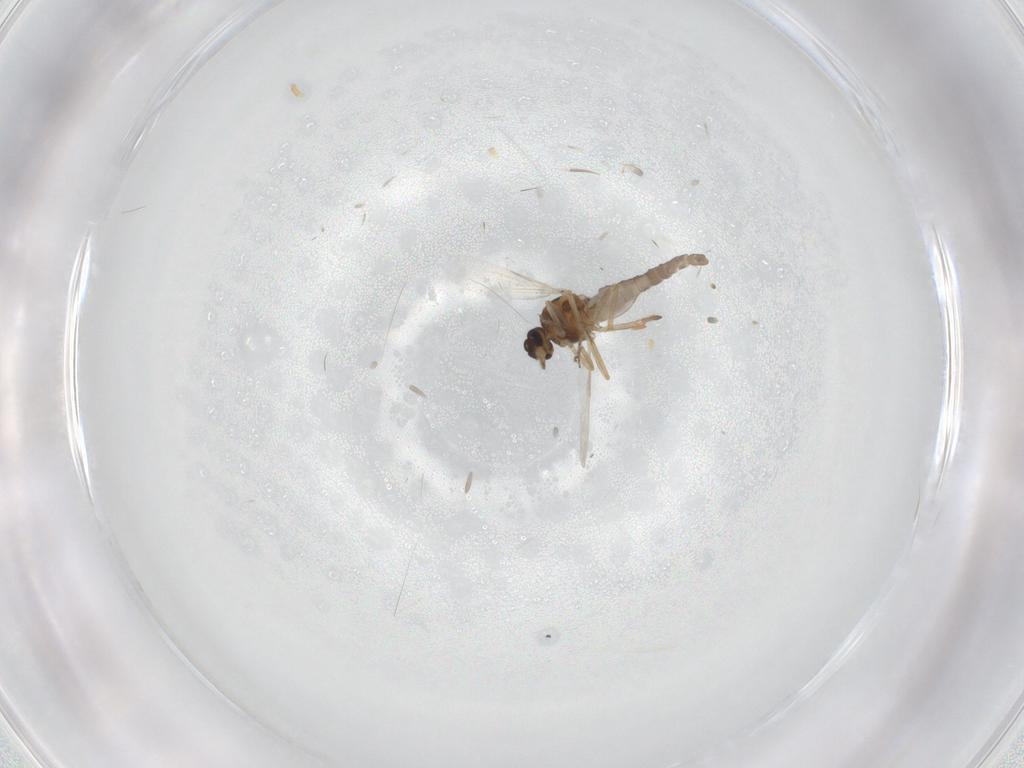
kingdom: Animalia
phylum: Arthropoda
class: Insecta
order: Diptera
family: Ceratopogonidae
